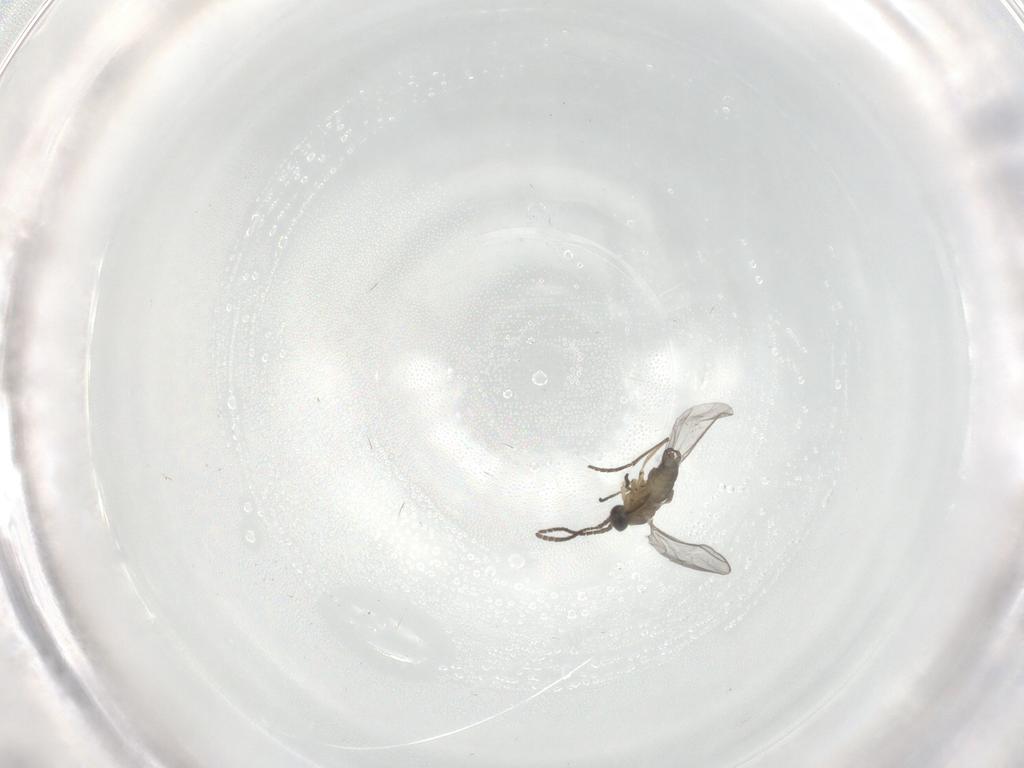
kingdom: Animalia
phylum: Arthropoda
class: Insecta
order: Diptera
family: Sciaridae
